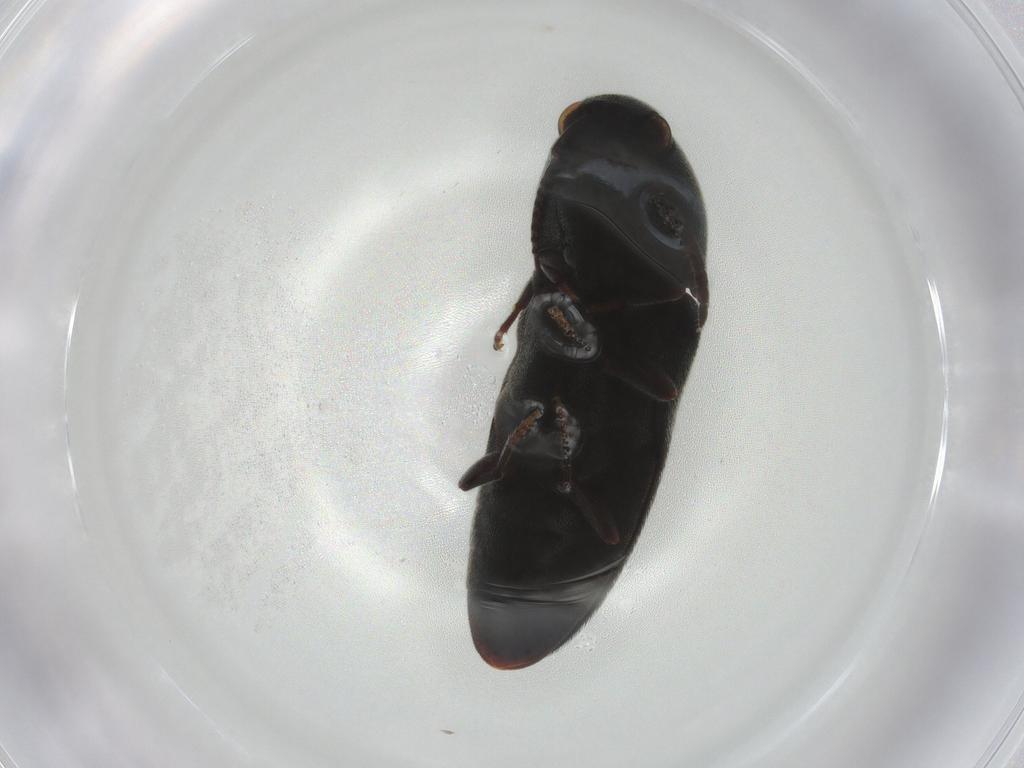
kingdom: Animalia
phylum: Arthropoda
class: Insecta
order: Coleoptera
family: Eucnemidae
